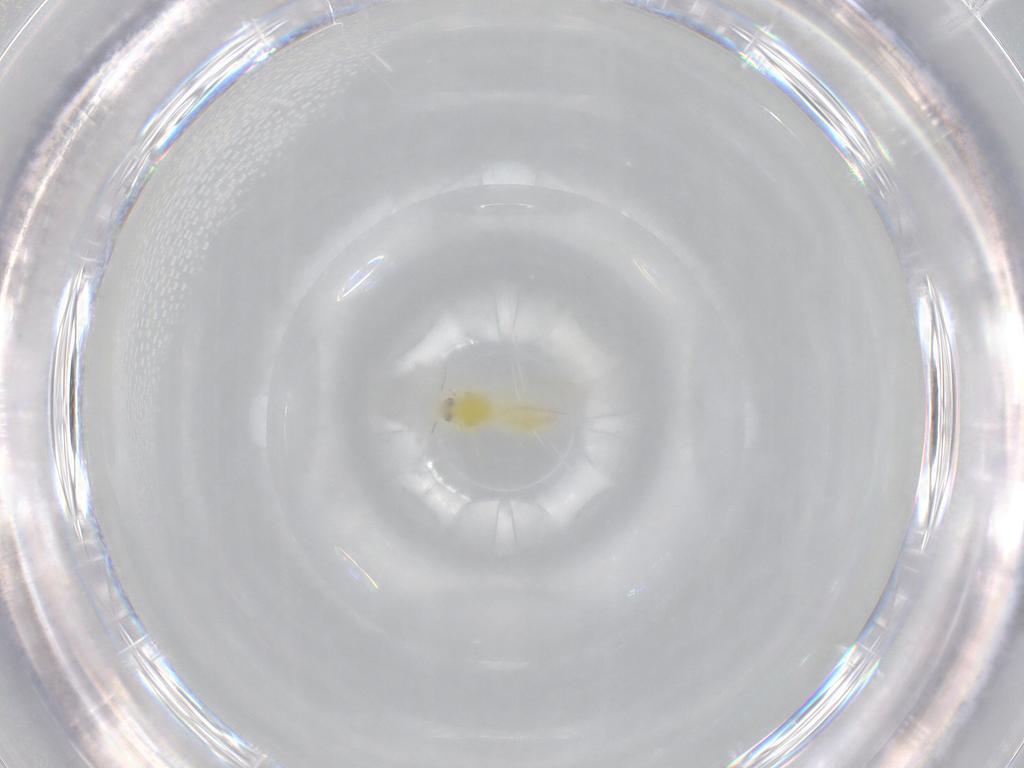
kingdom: Animalia
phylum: Arthropoda
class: Insecta
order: Hemiptera
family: Aleyrodidae
